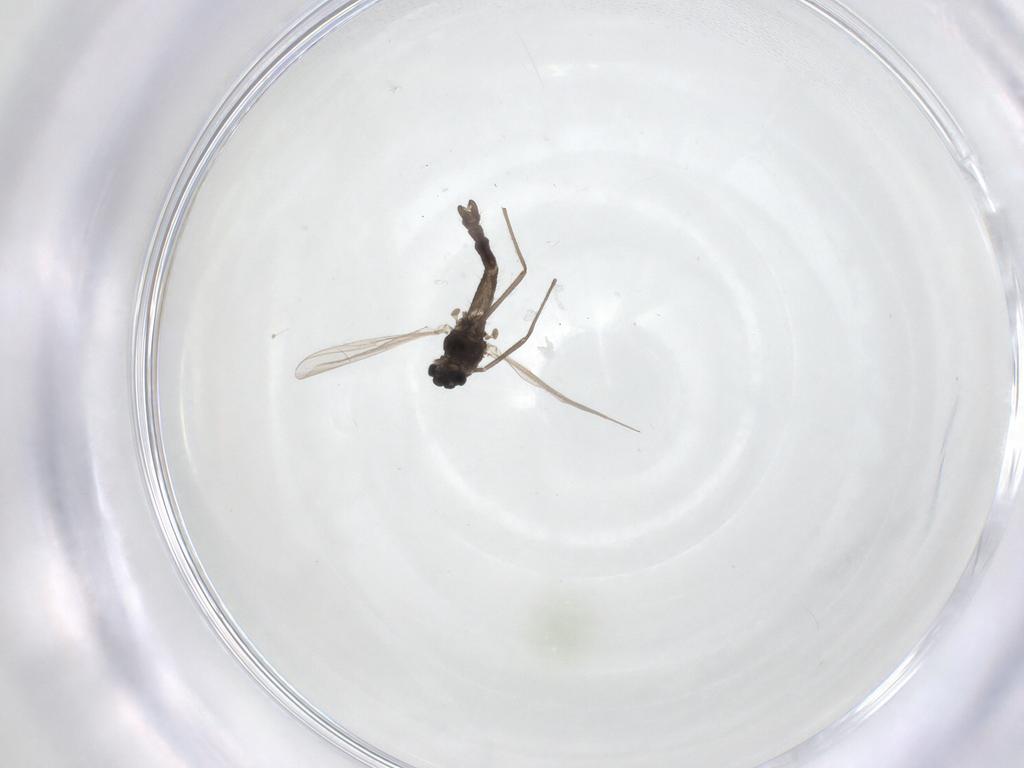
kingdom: Animalia
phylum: Arthropoda
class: Insecta
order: Diptera
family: Chironomidae
